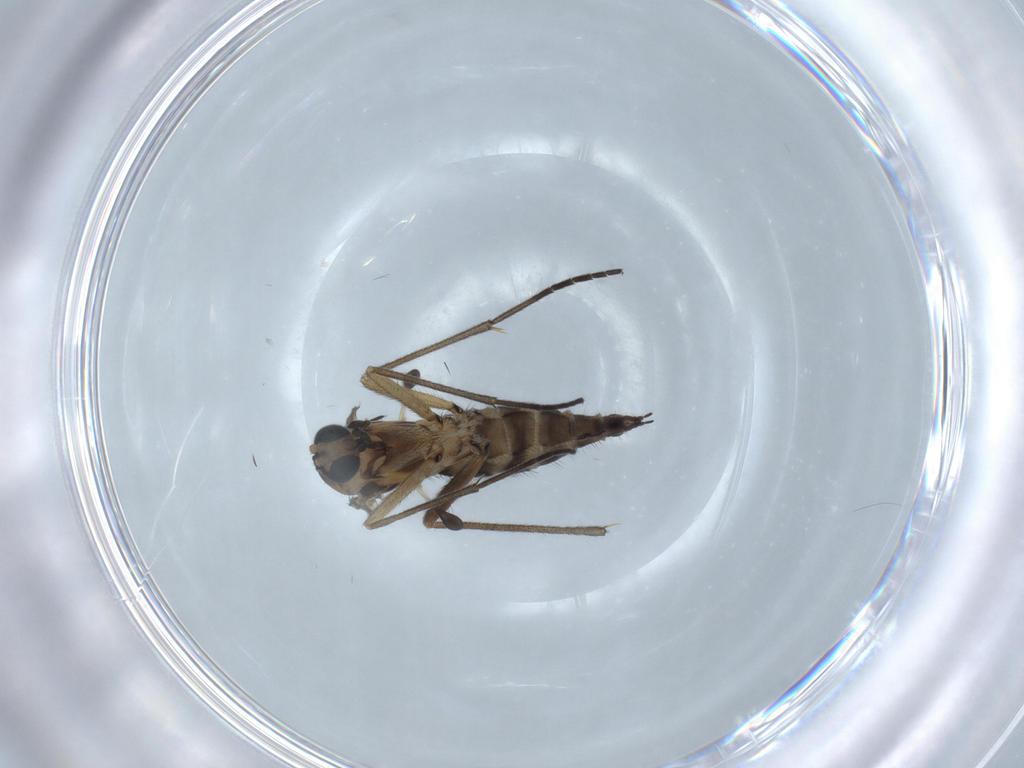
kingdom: Animalia
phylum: Arthropoda
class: Insecta
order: Diptera
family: Sciaridae
